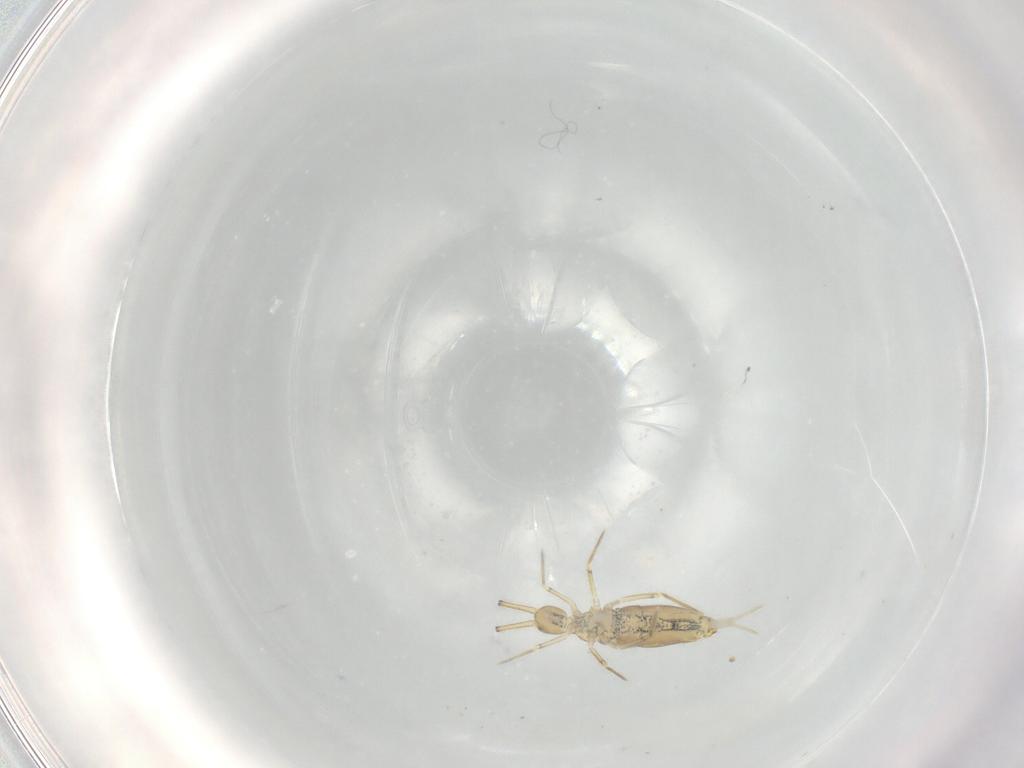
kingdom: Animalia
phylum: Arthropoda
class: Collembola
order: Entomobryomorpha
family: Paronellidae
